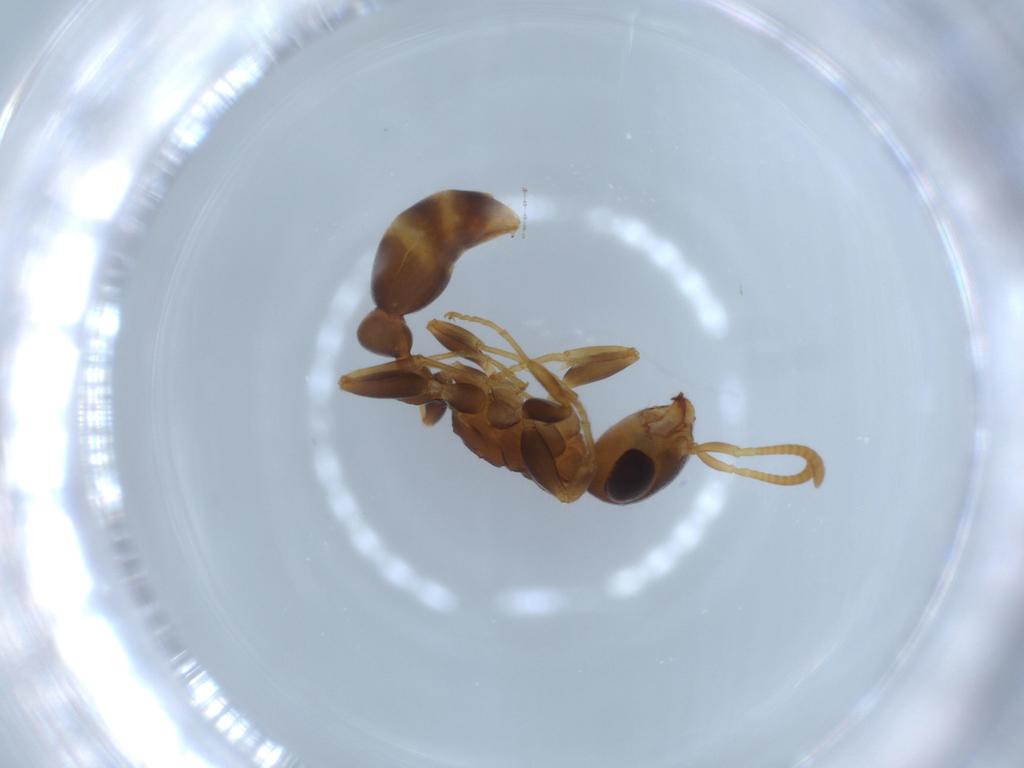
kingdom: Animalia
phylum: Arthropoda
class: Insecta
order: Hymenoptera
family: Formicidae
